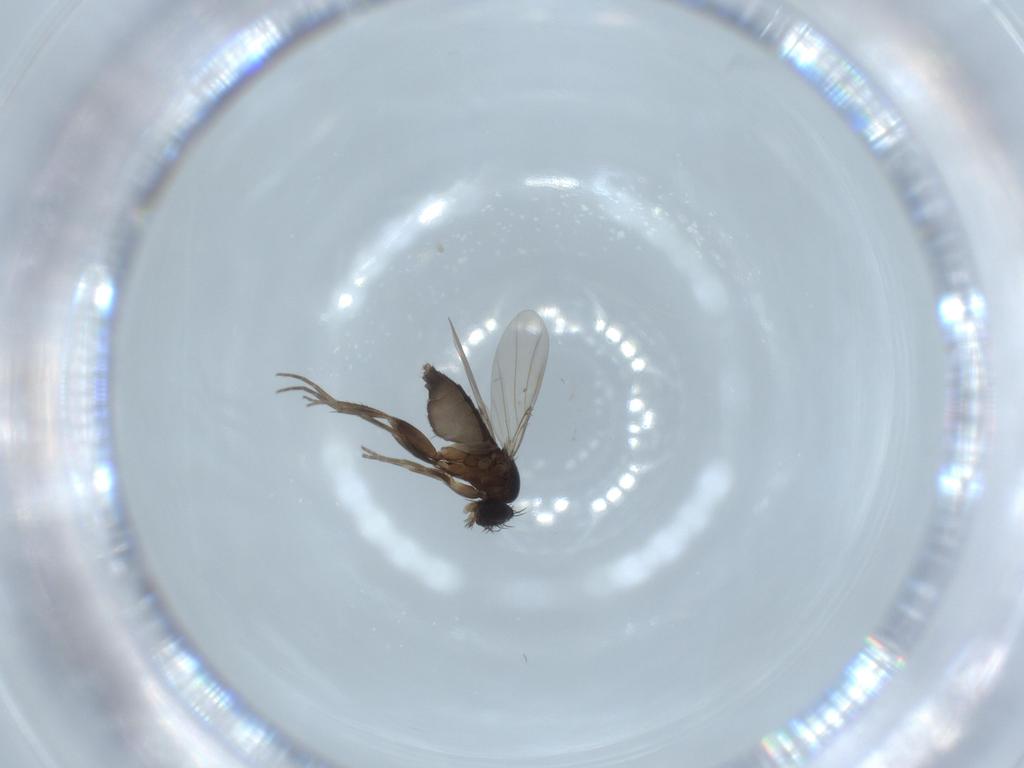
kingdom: Animalia
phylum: Arthropoda
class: Insecta
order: Diptera
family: Phoridae
